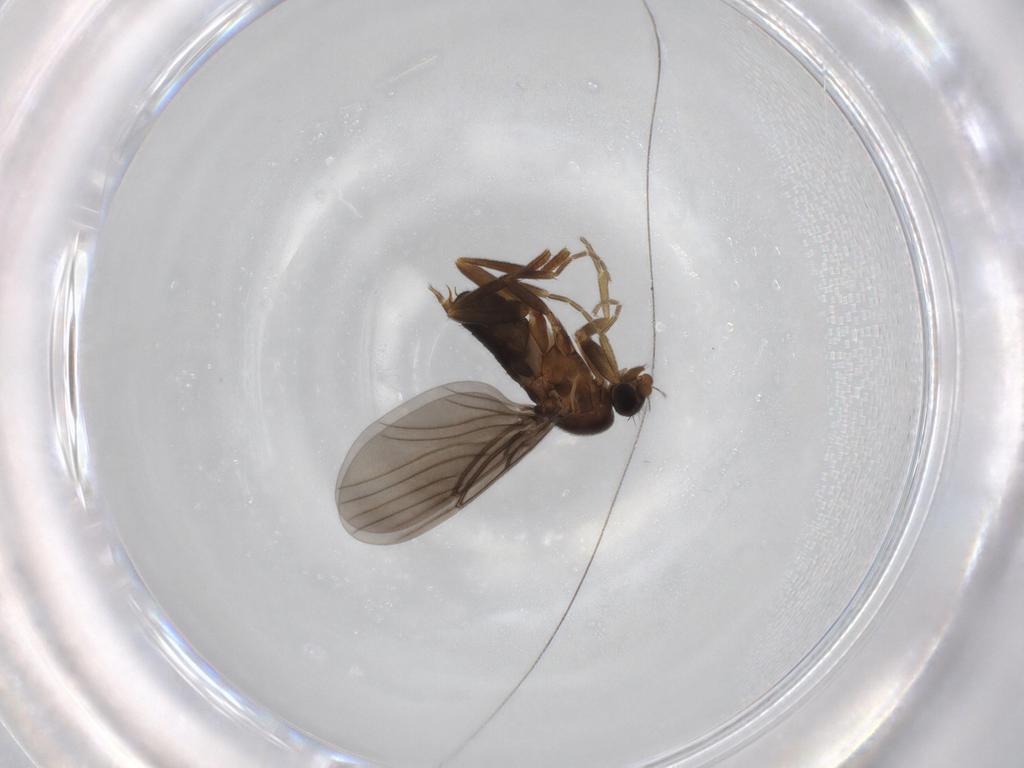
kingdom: Animalia
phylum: Arthropoda
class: Insecta
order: Diptera
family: Phoridae
